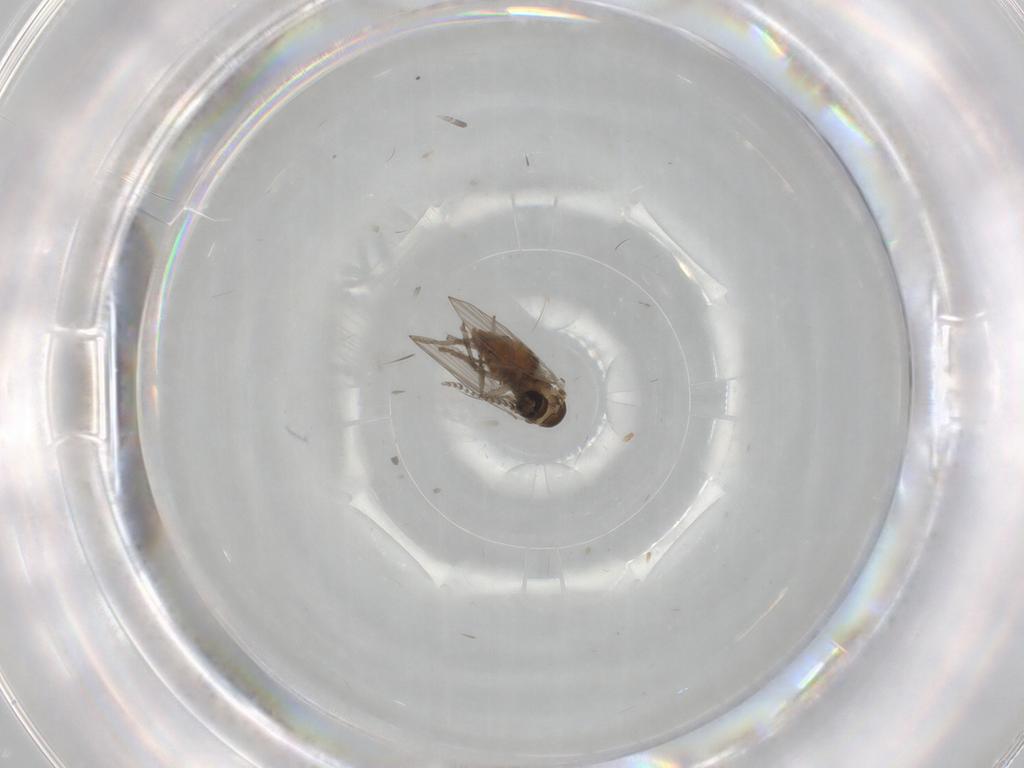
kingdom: Animalia
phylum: Arthropoda
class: Insecta
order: Diptera
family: Psychodidae
